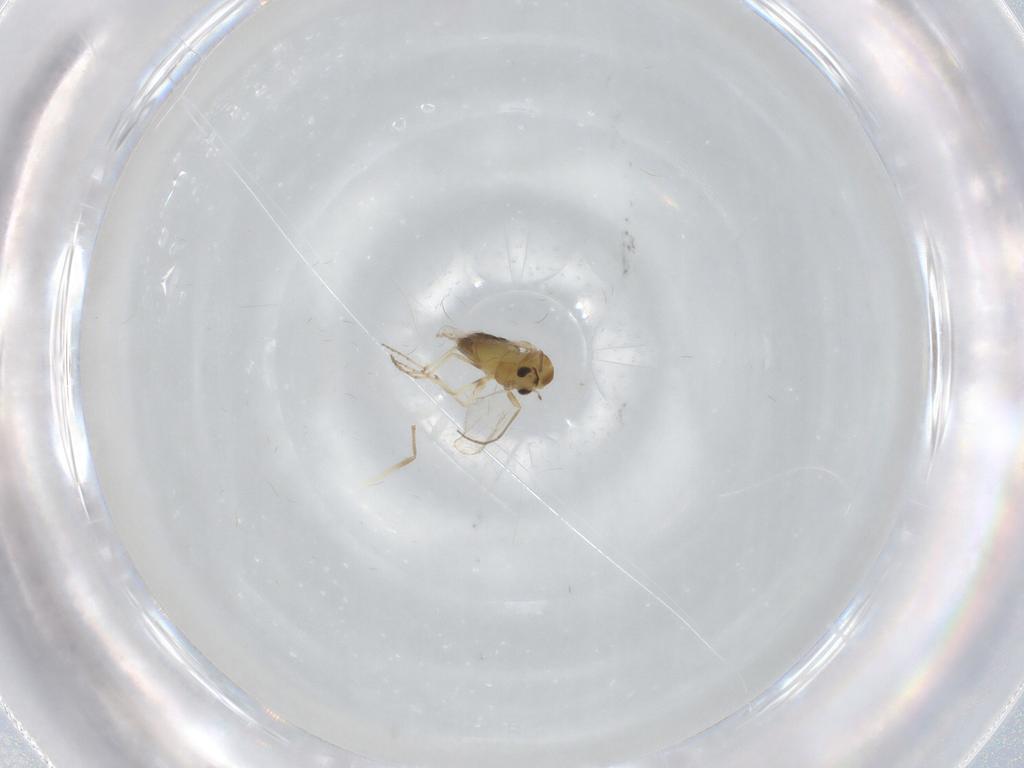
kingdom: Animalia
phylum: Arthropoda
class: Insecta
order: Diptera
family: Chironomidae
